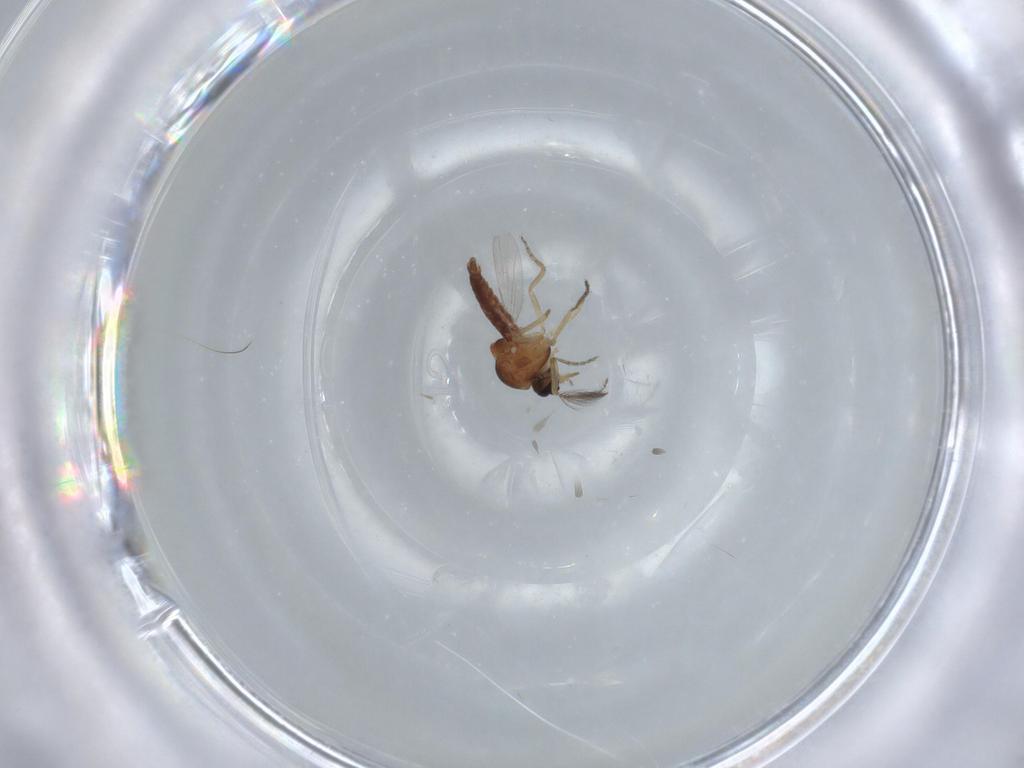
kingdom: Animalia
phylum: Arthropoda
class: Insecta
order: Diptera
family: Ceratopogonidae
